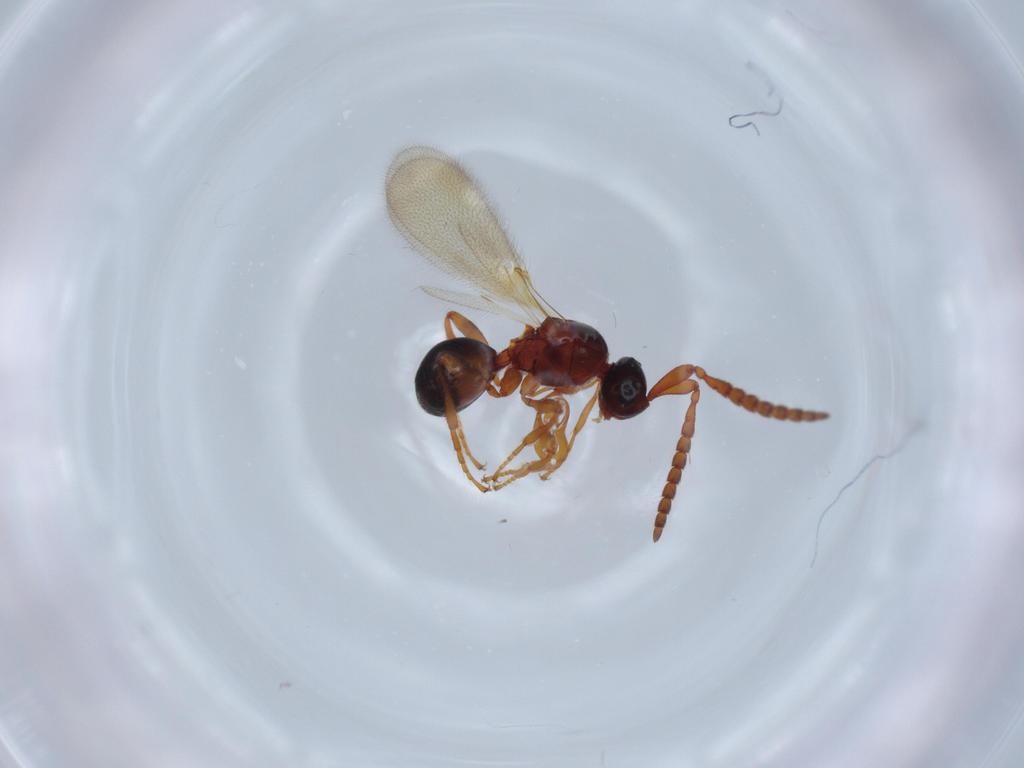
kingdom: Animalia
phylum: Arthropoda
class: Insecta
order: Hymenoptera
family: Diapriidae
